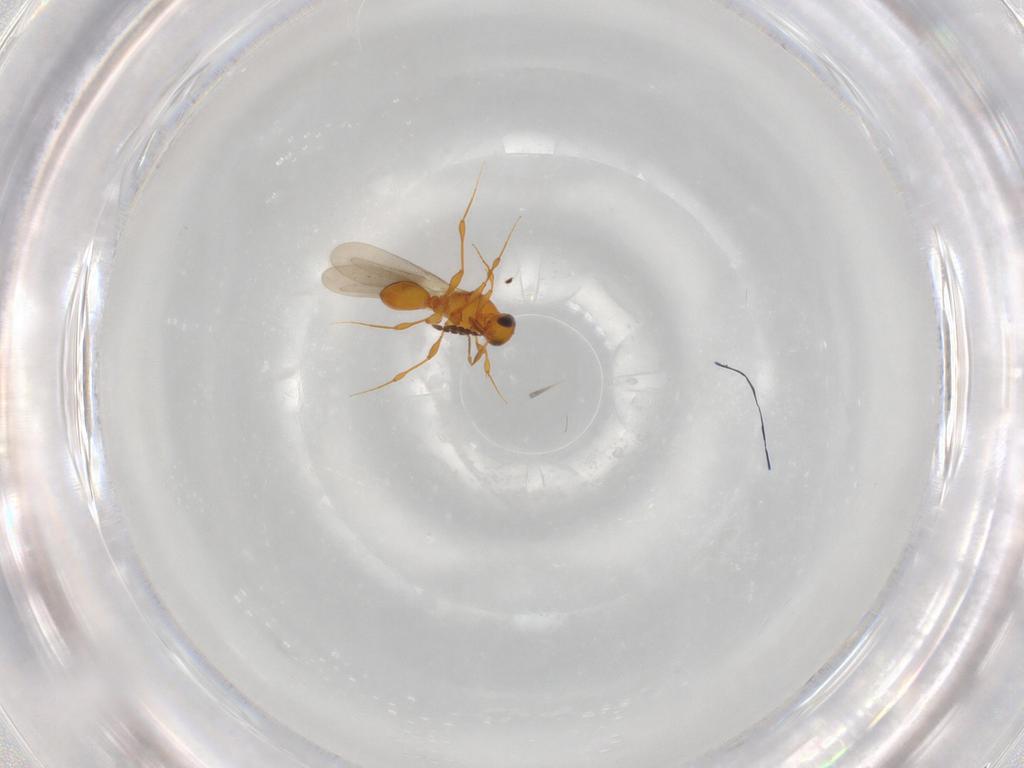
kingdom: Animalia
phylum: Arthropoda
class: Insecta
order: Hymenoptera
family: Platygastridae
